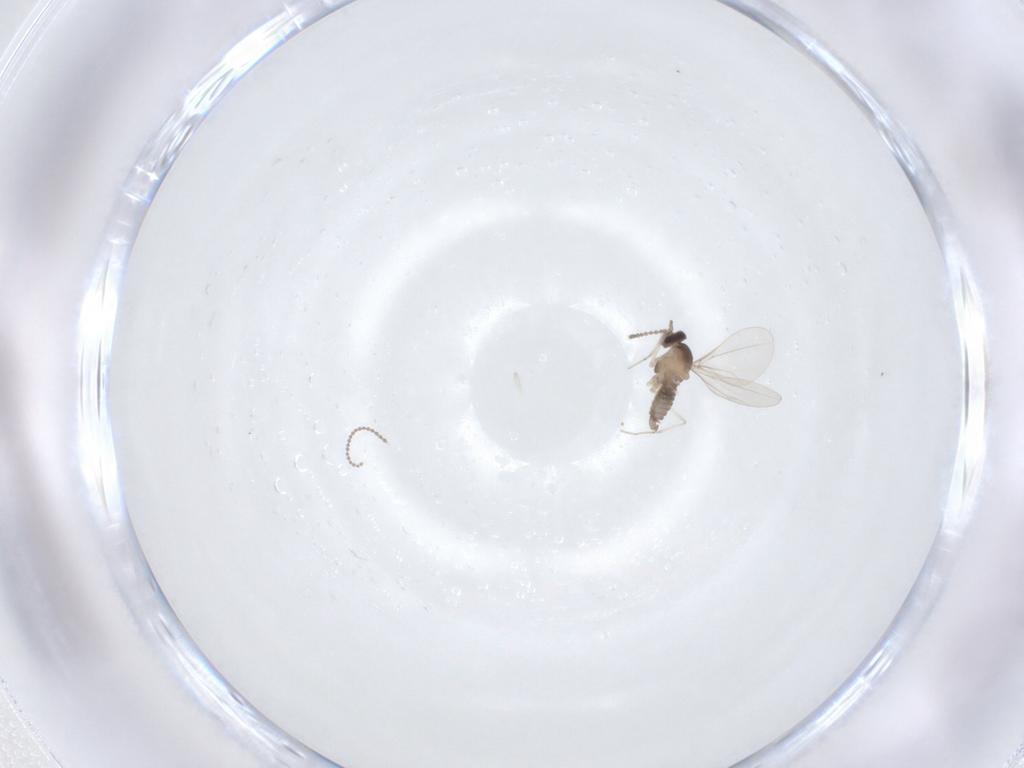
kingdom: Animalia
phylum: Arthropoda
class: Insecta
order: Diptera
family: Cecidomyiidae
